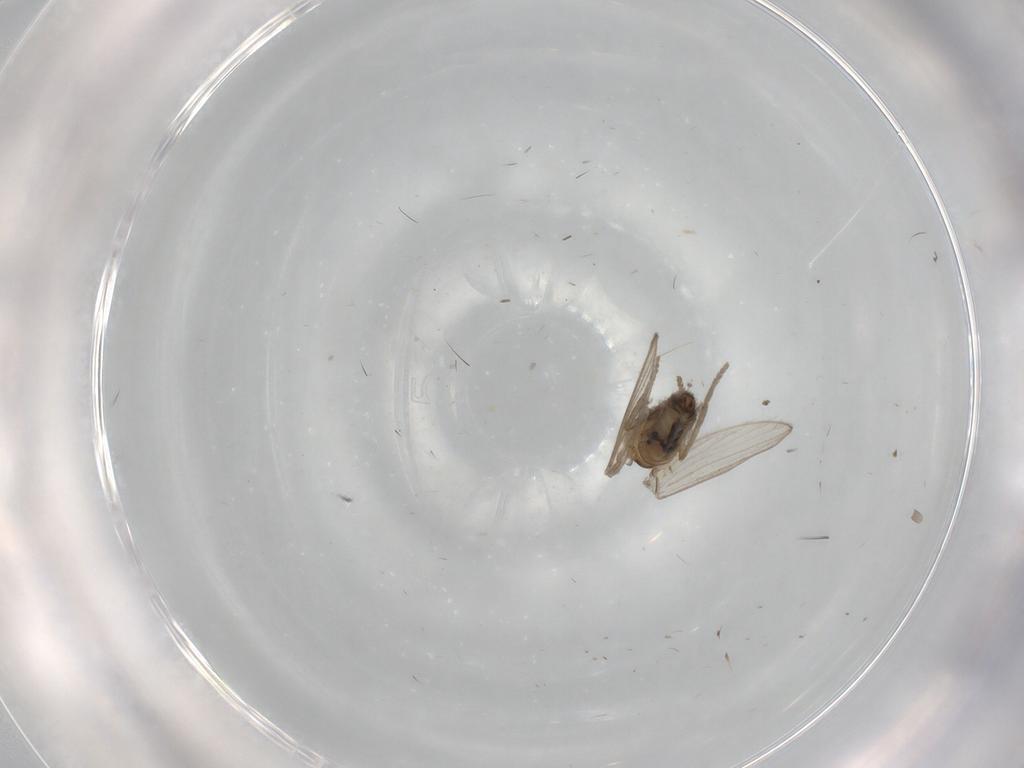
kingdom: Animalia
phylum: Arthropoda
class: Insecta
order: Diptera
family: Psychodidae
